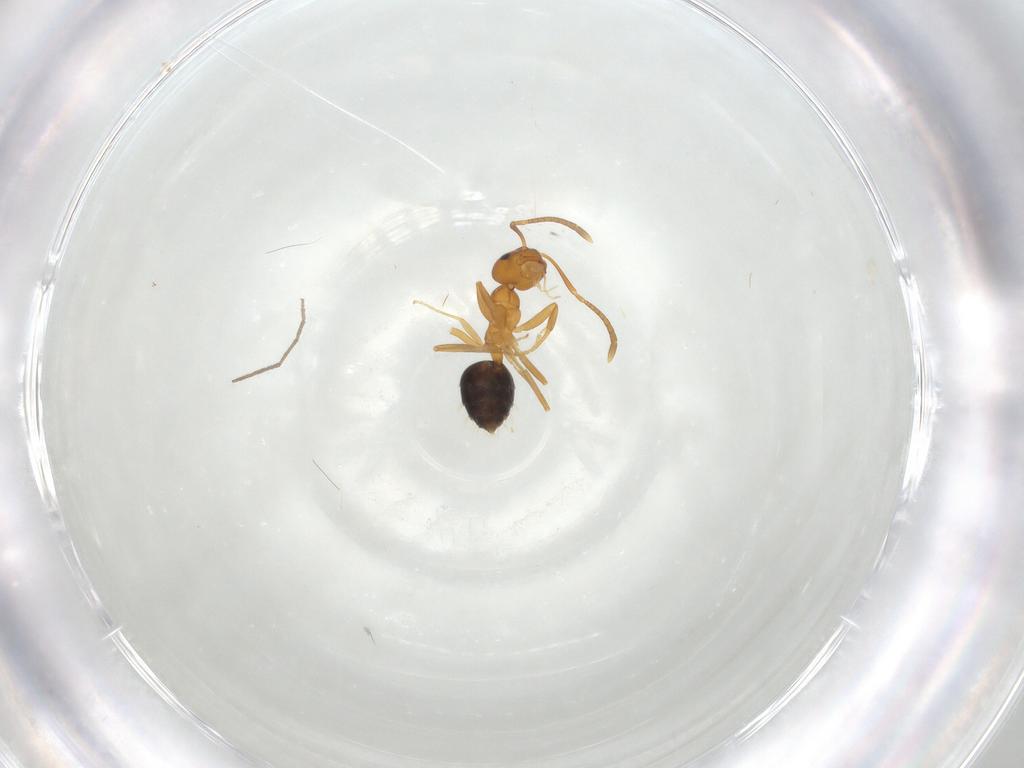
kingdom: Animalia
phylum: Arthropoda
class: Insecta
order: Hymenoptera
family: Formicidae
